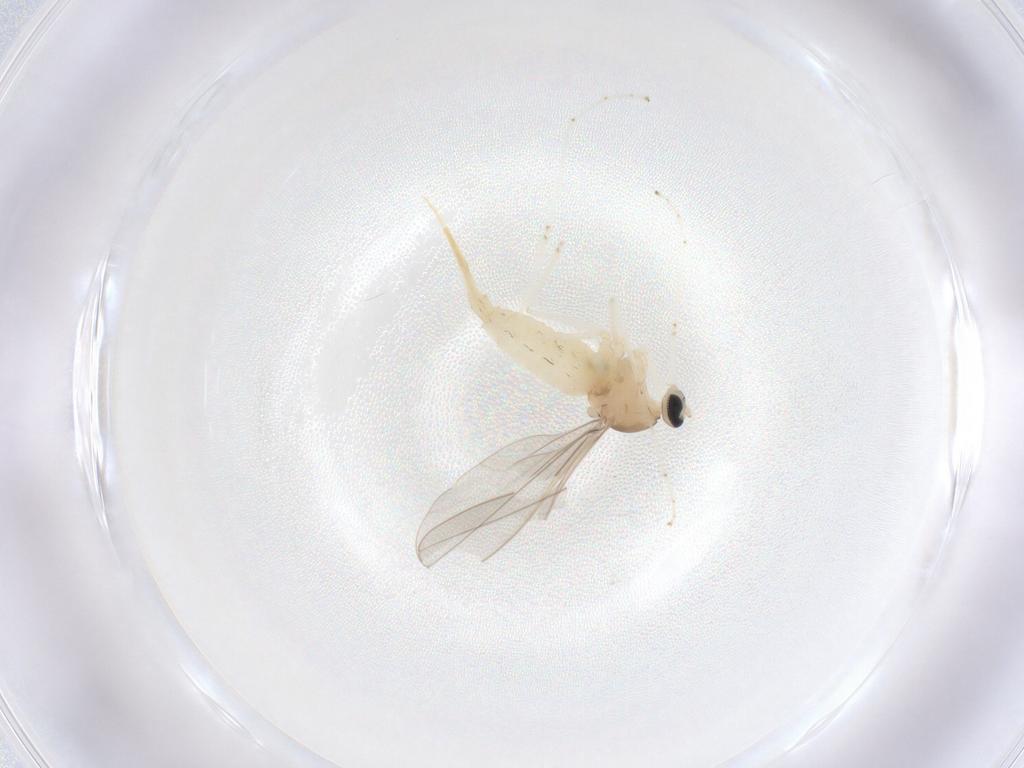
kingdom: Animalia
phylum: Arthropoda
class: Insecta
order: Diptera
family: Cecidomyiidae
